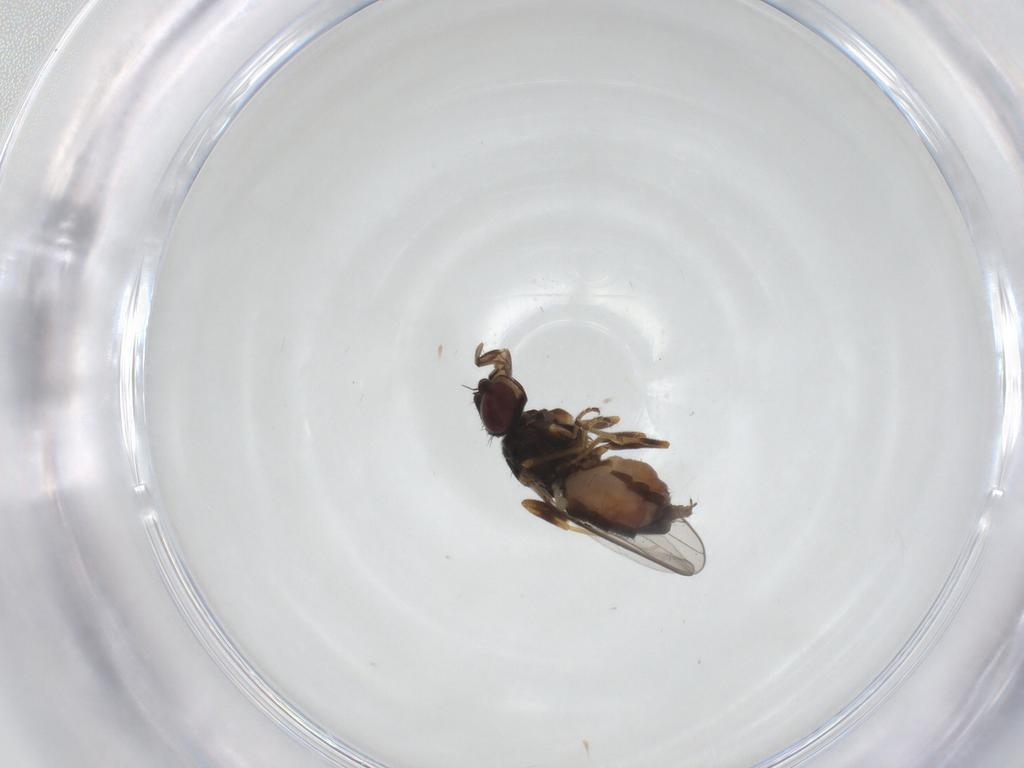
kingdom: Animalia
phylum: Arthropoda
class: Insecta
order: Diptera
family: Chloropidae
